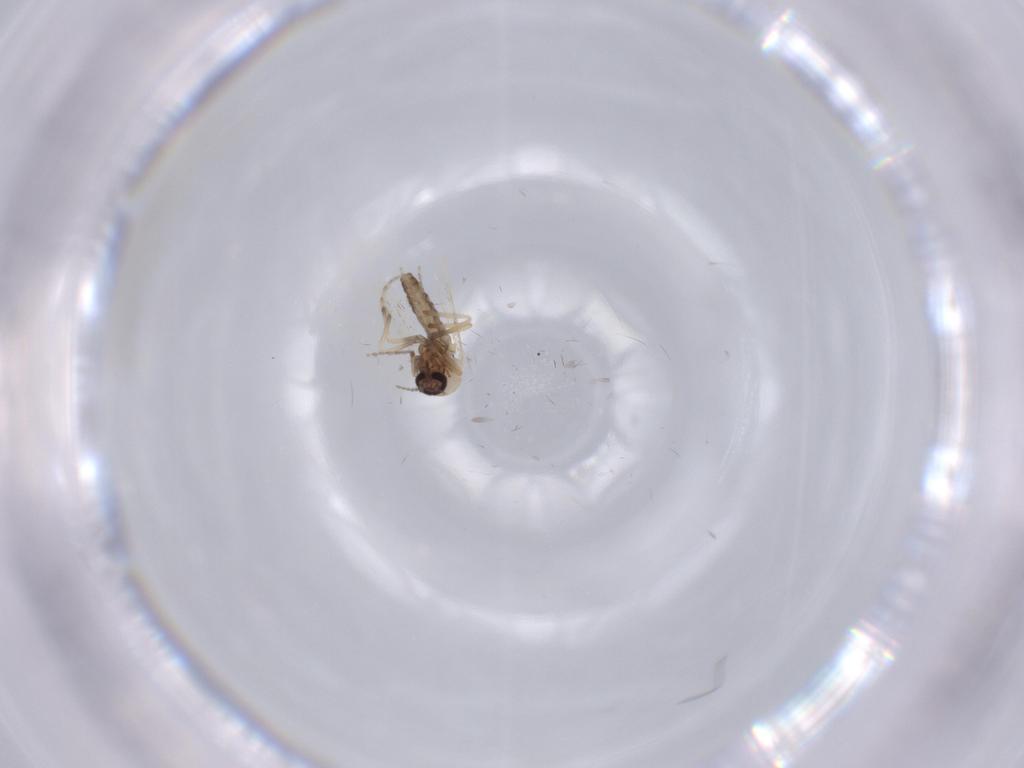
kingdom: Animalia
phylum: Arthropoda
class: Insecta
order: Diptera
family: Ceratopogonidae
